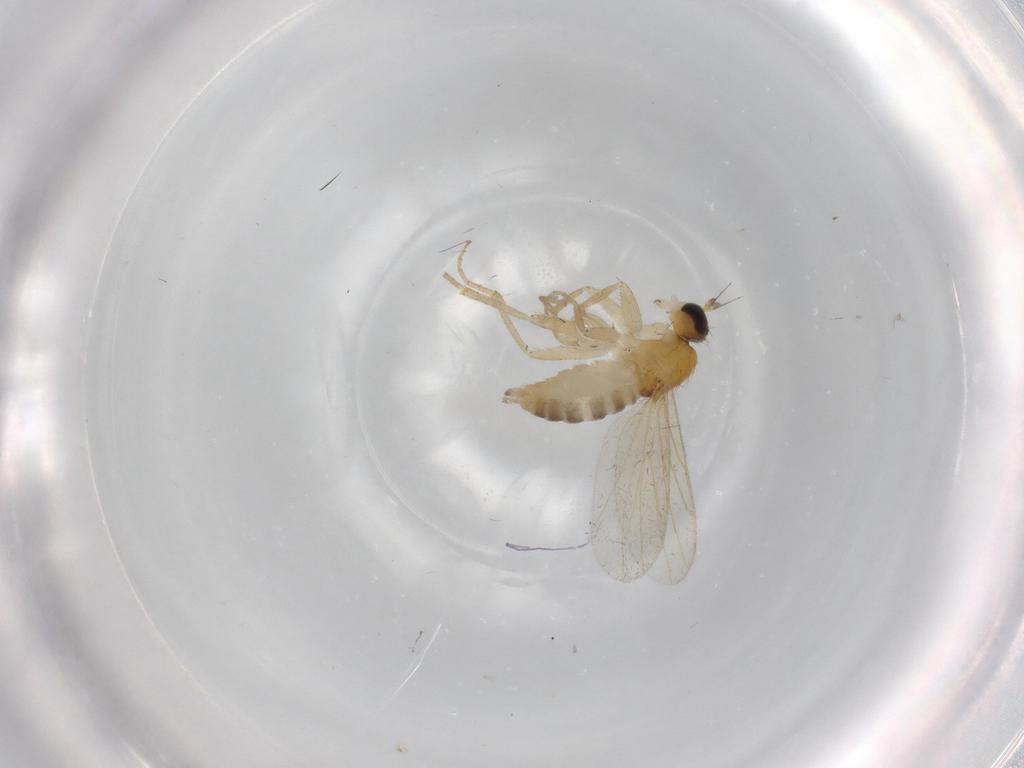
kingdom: Animalia
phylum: Arthropoda
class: Insecta
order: Diptera
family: Hybotidae
